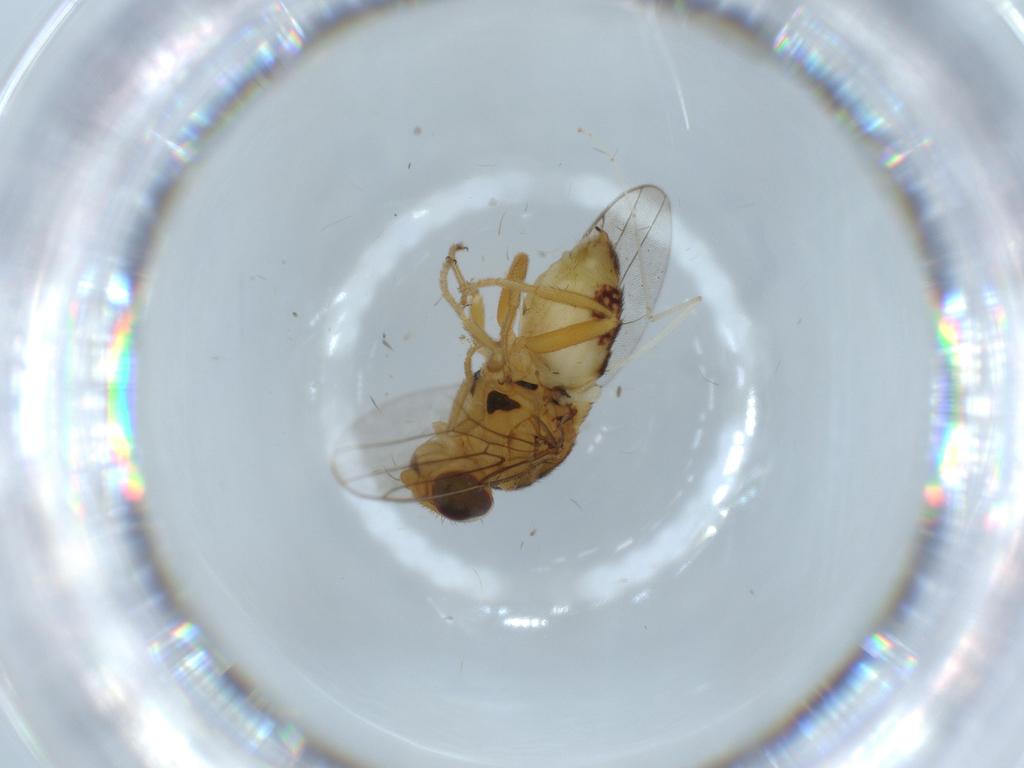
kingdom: Animalia
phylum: Arthropoda
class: Insecta
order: Diptera
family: Chloropidae
